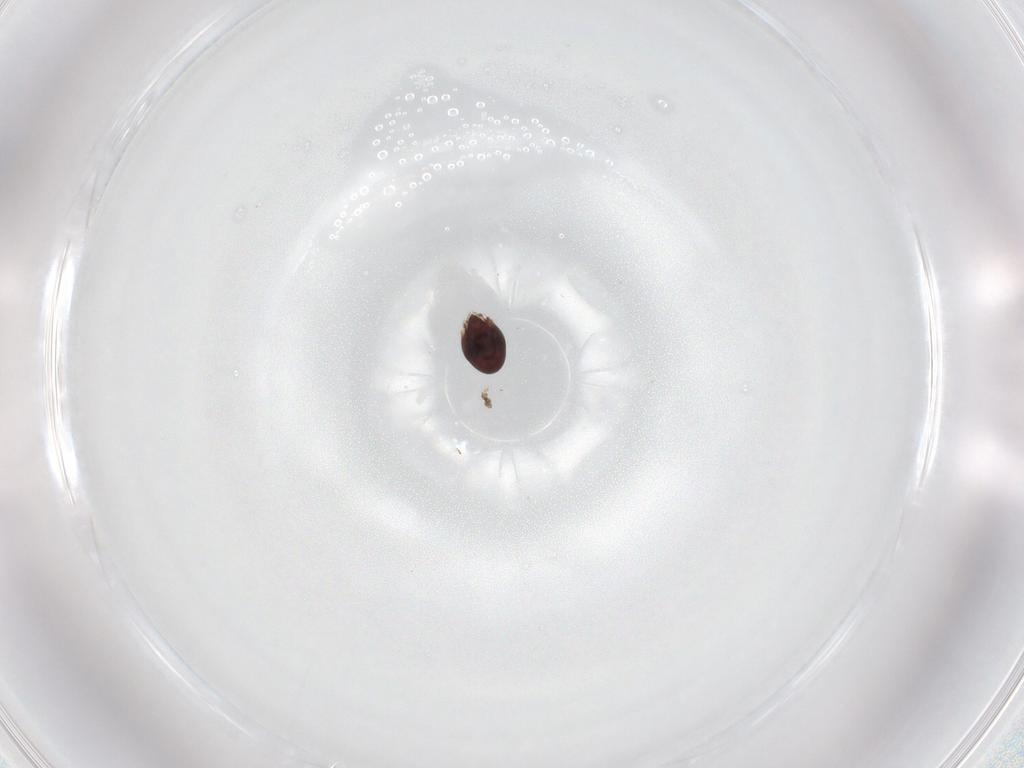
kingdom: Animalia
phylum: Arthropoda
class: Arachnida
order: Sarcoptiformes
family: Achipteriidae
